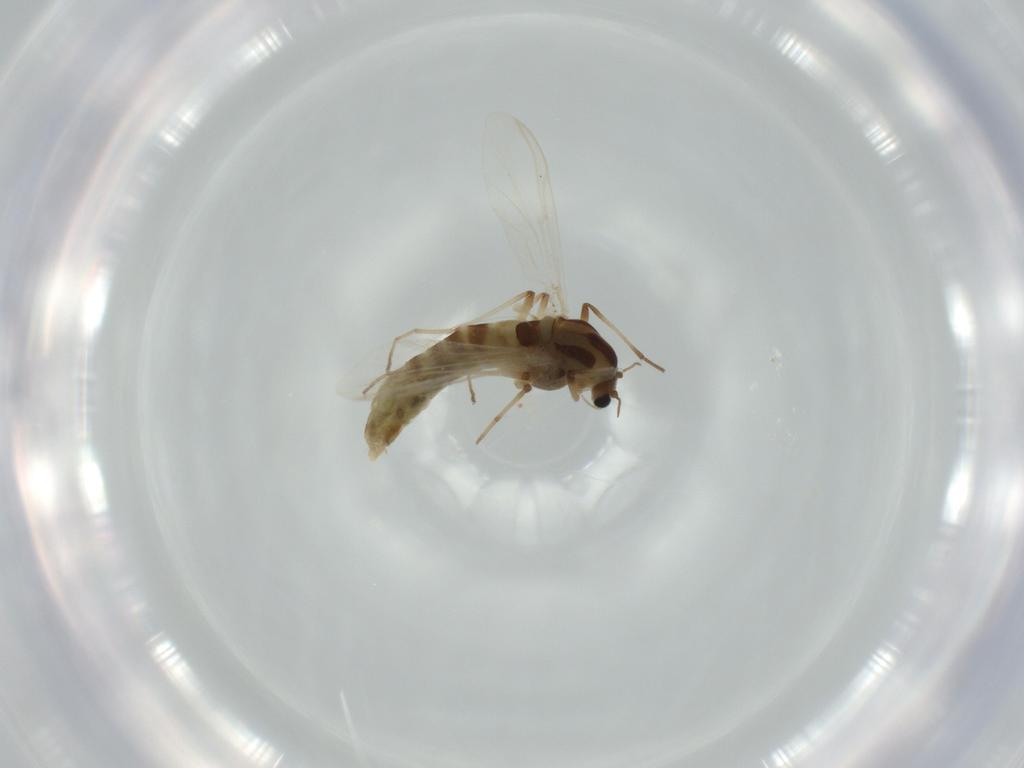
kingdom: Animalia
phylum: Arthropoda
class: Insecta
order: Diptera
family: Chironomidae
